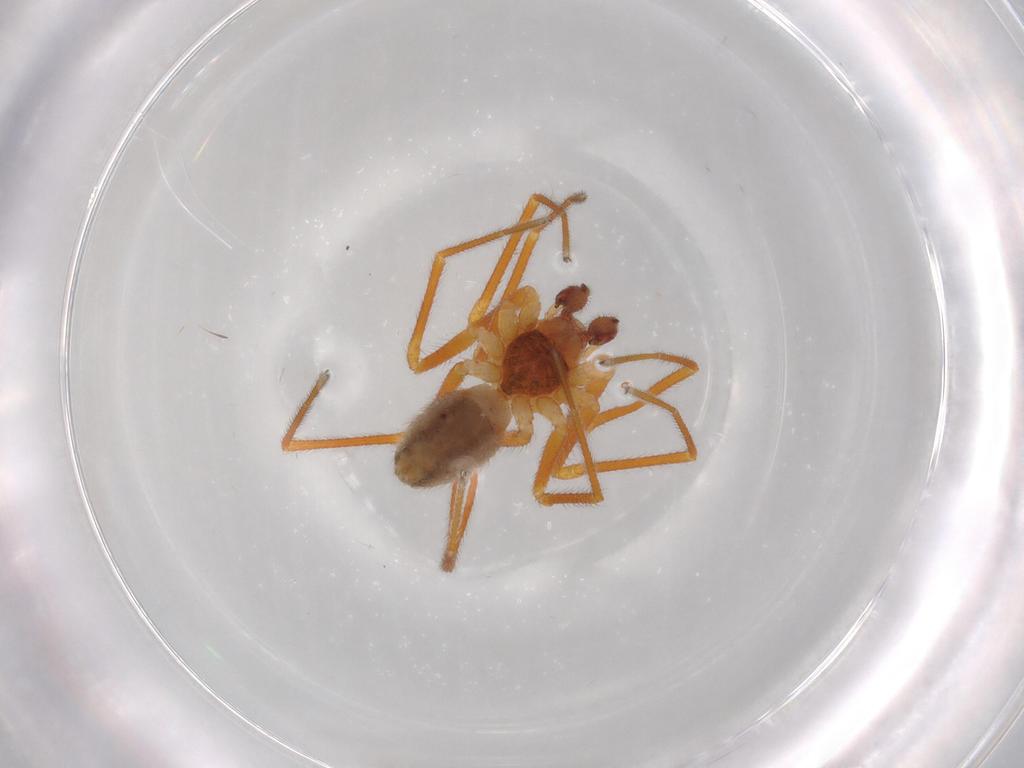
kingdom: Animalia
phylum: Arthropoda
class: Arachnida
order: Araneae
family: Linyphiidae
